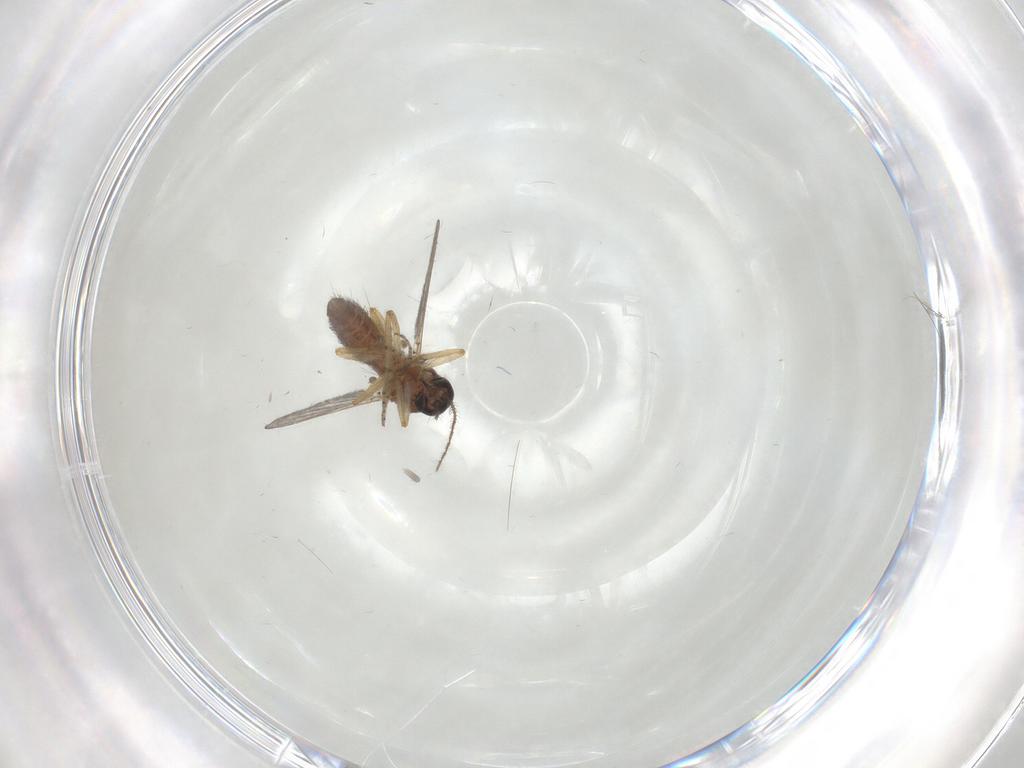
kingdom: Animalia
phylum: Arthropoda
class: Insecta
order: Diptera
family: Ceratopogonidae
